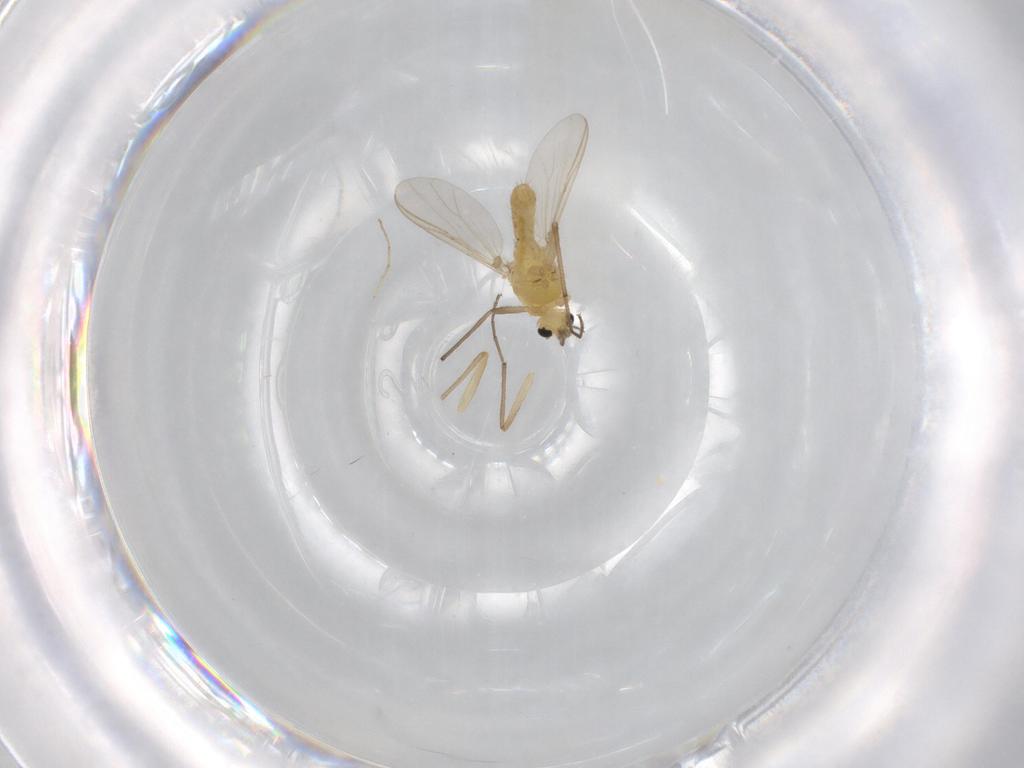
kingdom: Animalia
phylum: Arthropoda
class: Insecta
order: Diptera
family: Chironomidae
